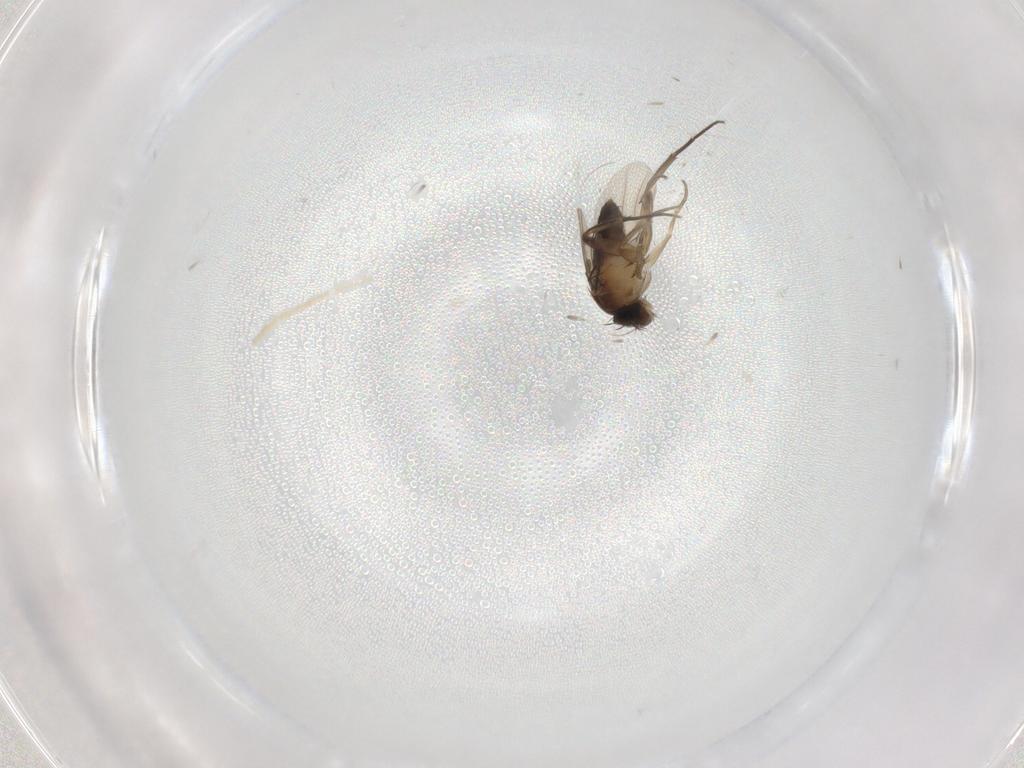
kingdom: Animalia
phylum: Arthropoda
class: Insecta
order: Diptera
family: Phoridae
